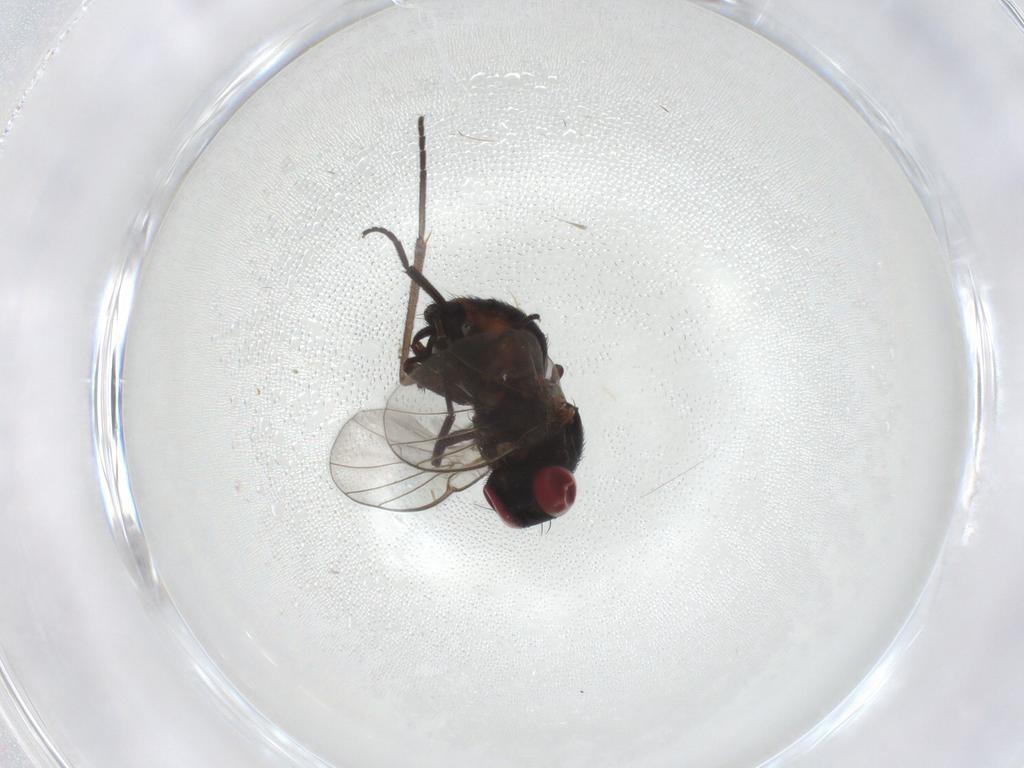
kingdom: Animalia
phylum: Arthropoda
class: Insecta
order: Diptera
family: Agromyzidae
